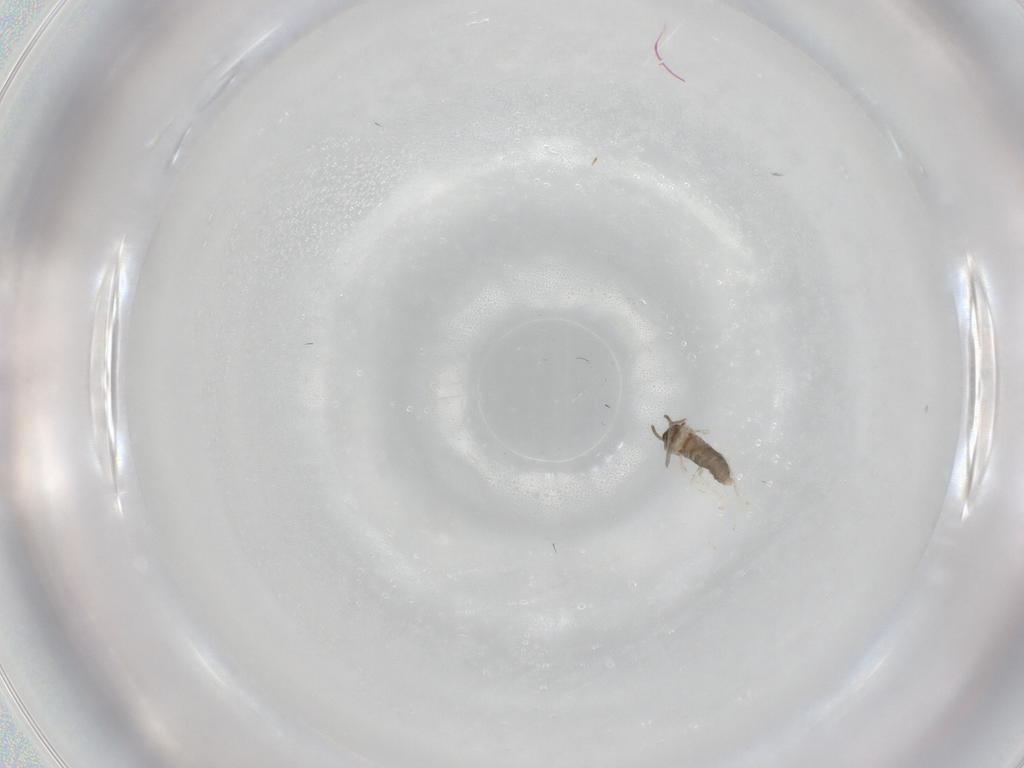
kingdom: Animalia
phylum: Arthropoda
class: Insecta
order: Diptera
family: Cecidomyiidae
